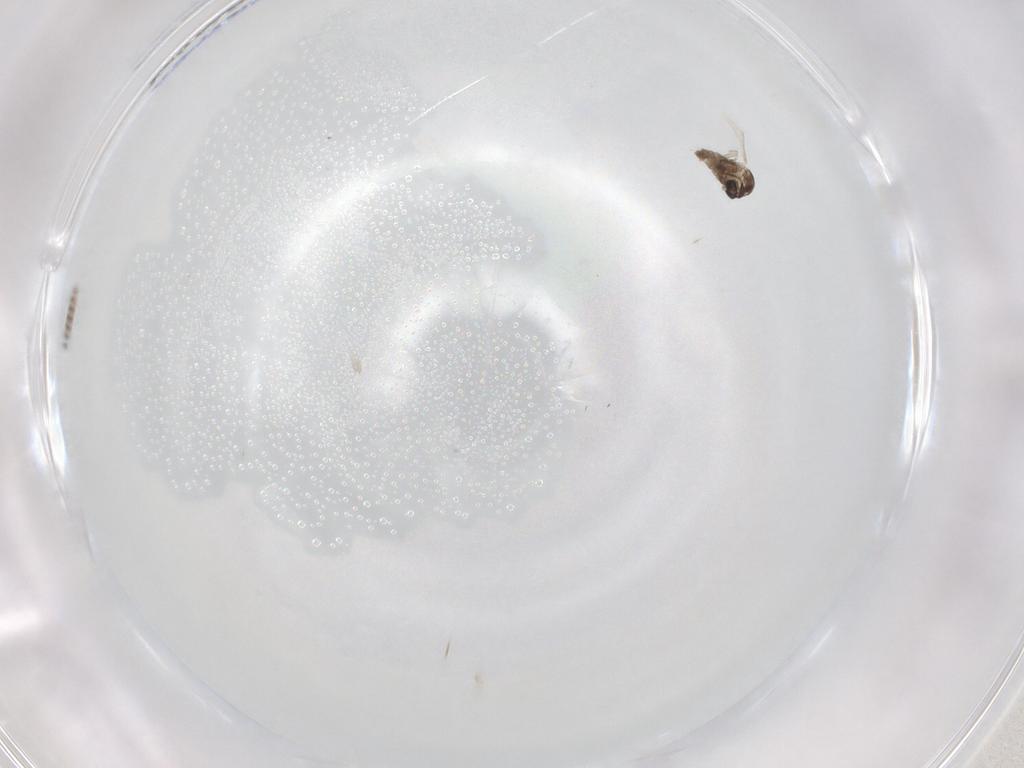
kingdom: Animalia
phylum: Arthropoda
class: Insecta
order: Diptera
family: Cecidomyiidae
